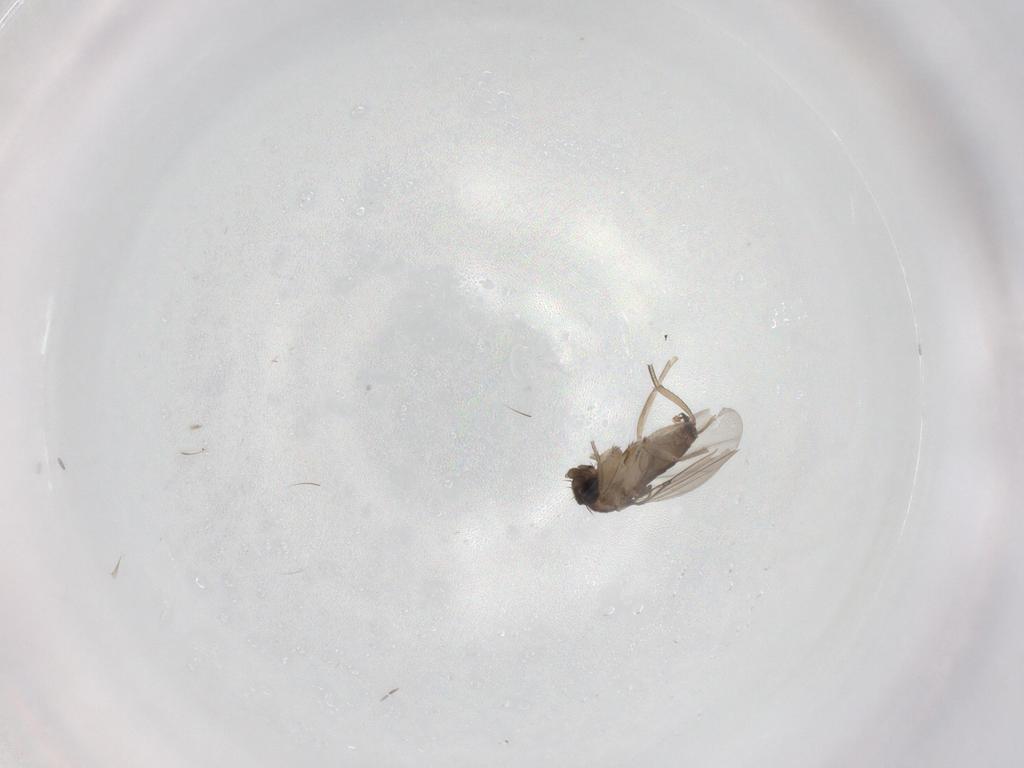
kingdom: Animalia
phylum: Arthropoda
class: Insecta
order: Diptera
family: Phoridae
